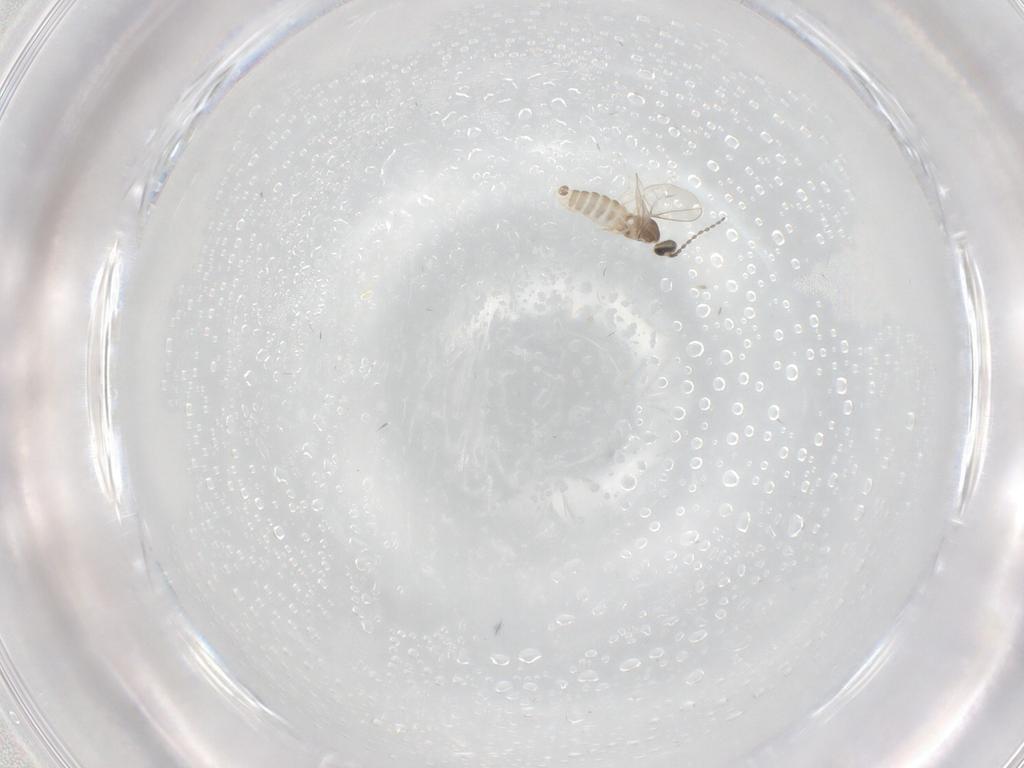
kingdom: Animalia
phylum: Arthropoda
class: Insecta
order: Diptera
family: Cecidomyiidae
